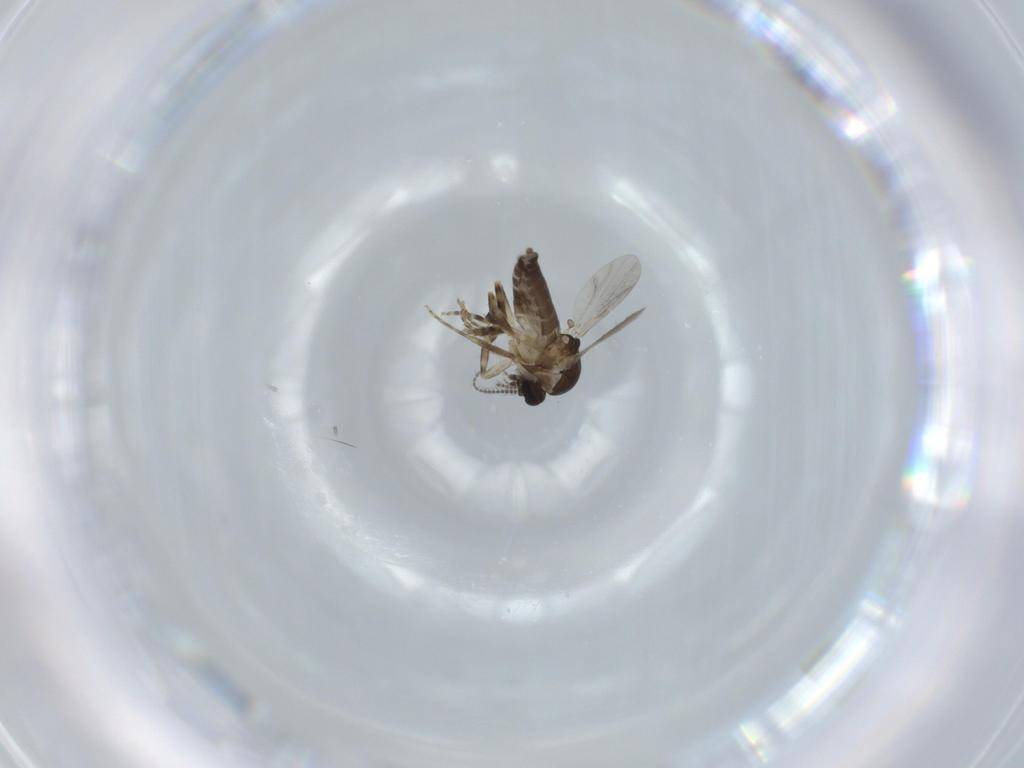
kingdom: Animalia
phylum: Arthropoda
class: Insecta
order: Diptera
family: Ceratopogonidae
